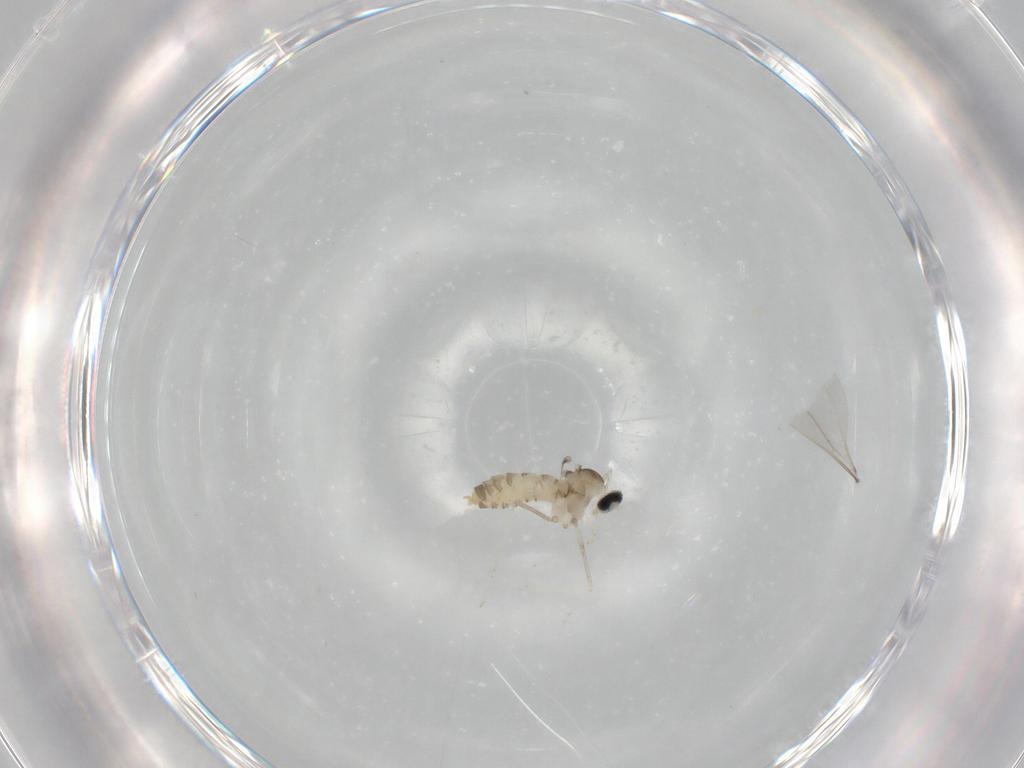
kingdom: Animalia
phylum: Arthropoda
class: Insecta
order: Diptera
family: Cecidomyiidae
